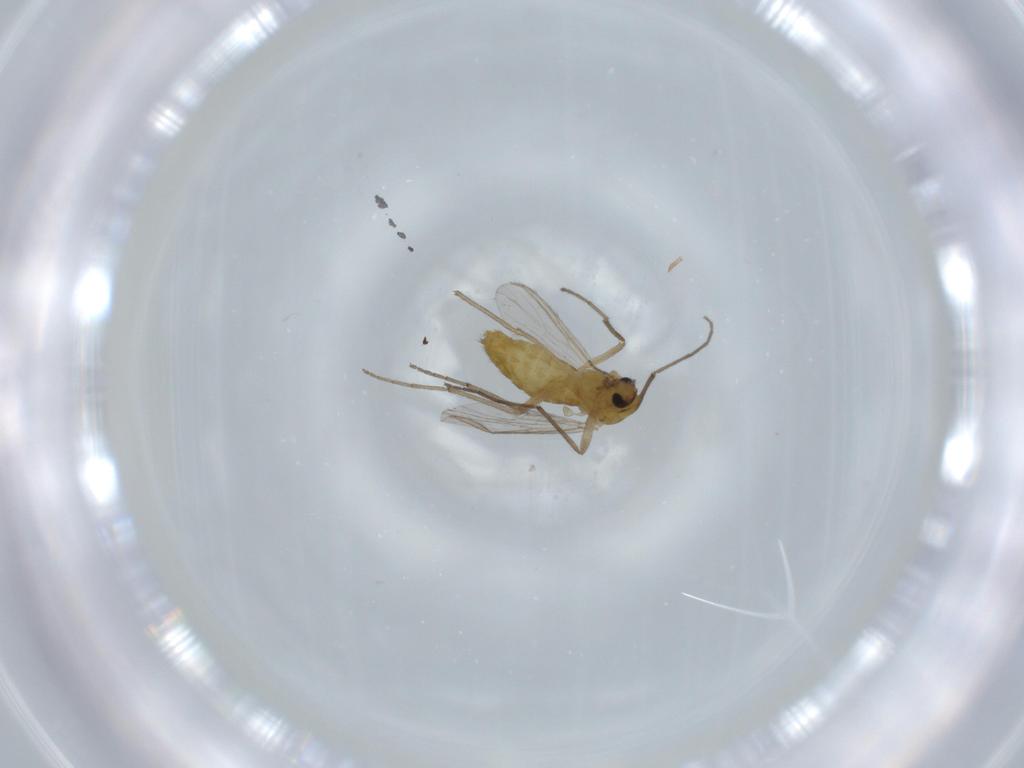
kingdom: Animalia
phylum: Arthropoda
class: Insecta
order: Diptera
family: Chironomidae
